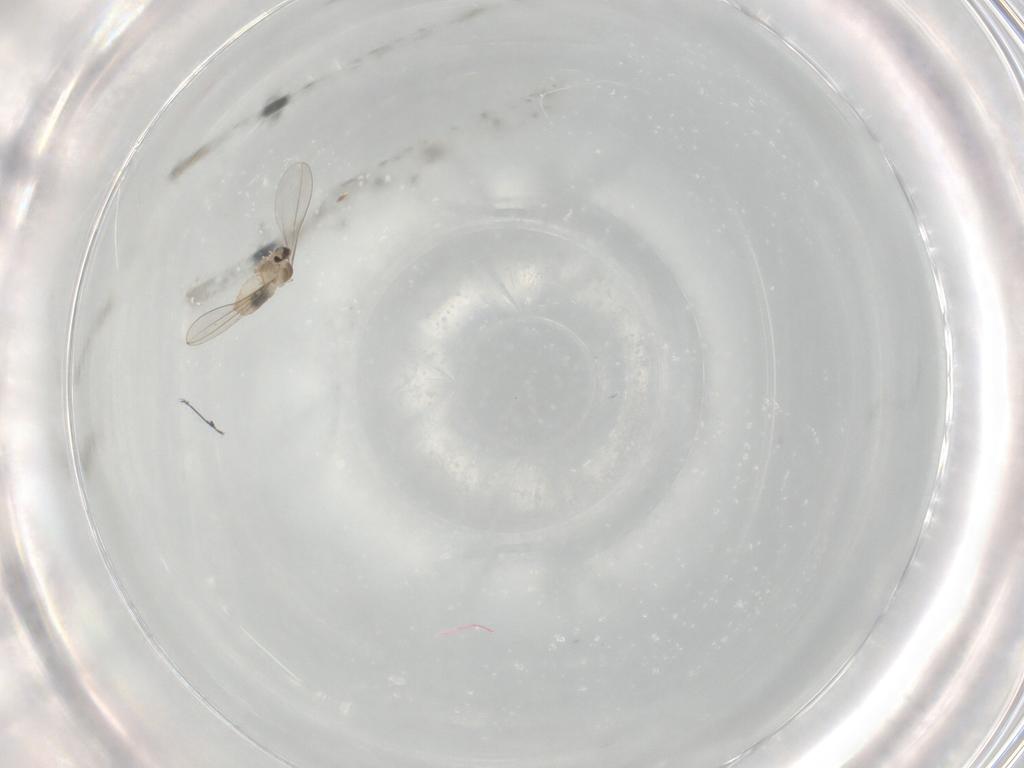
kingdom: Animalia
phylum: Arthropoda
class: Insecta
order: Diptera
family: Cecidomyiidae
